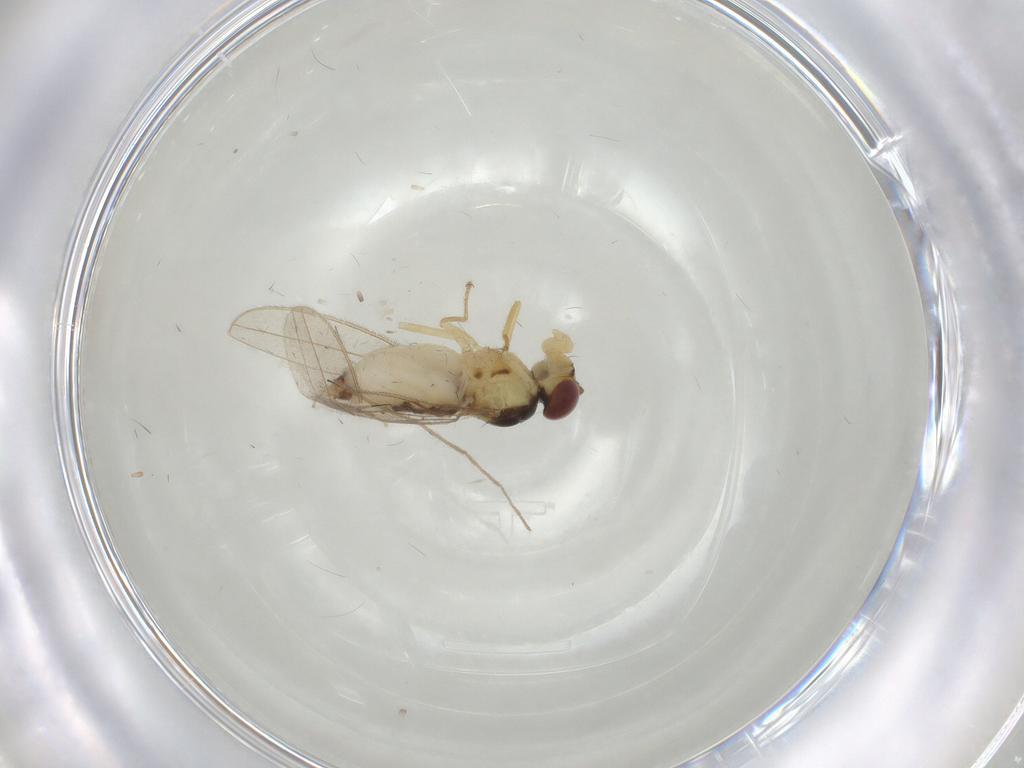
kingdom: Animalia
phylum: Arthropoda
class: Insecta
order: Diptera
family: Asteiidae
